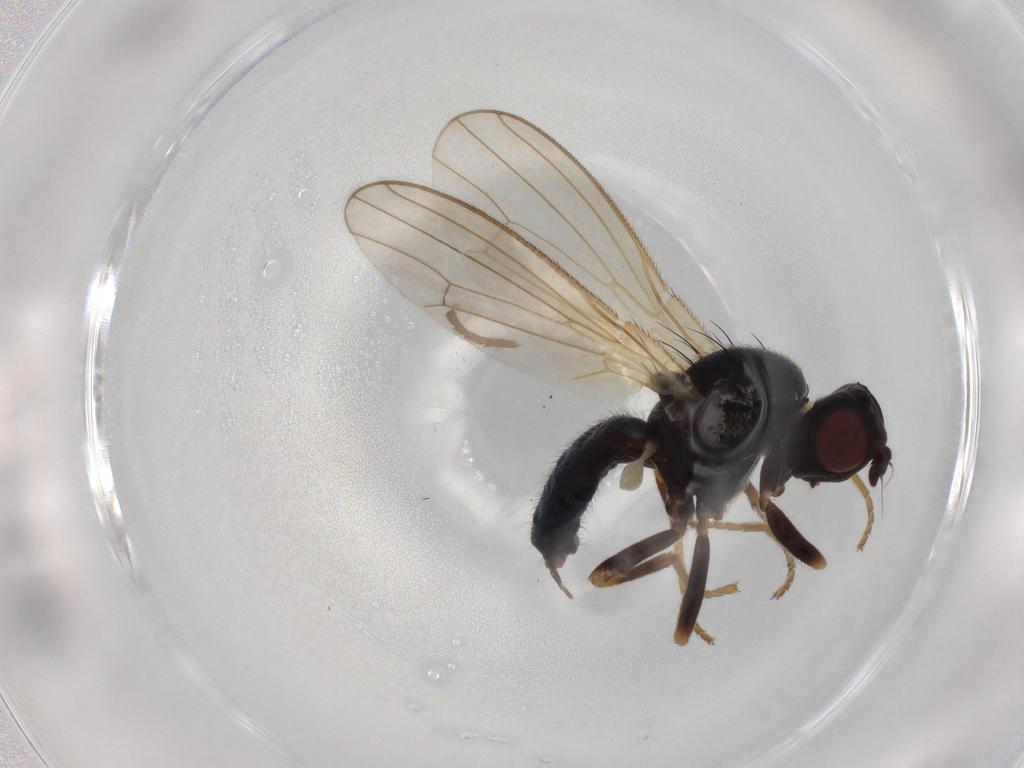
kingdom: Animalia
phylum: Arthropoda
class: Insecta
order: Diptera
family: Anthomyiidae
